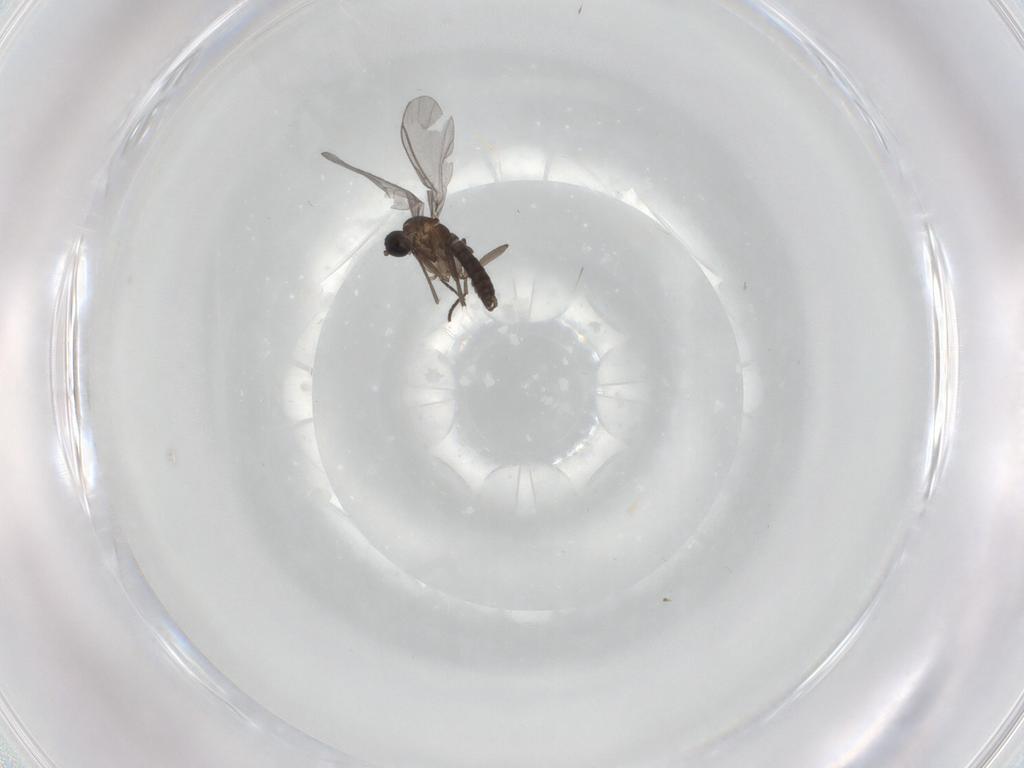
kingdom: Animalia
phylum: Arthropoda
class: Insecta
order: Diptera
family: Phoridae
